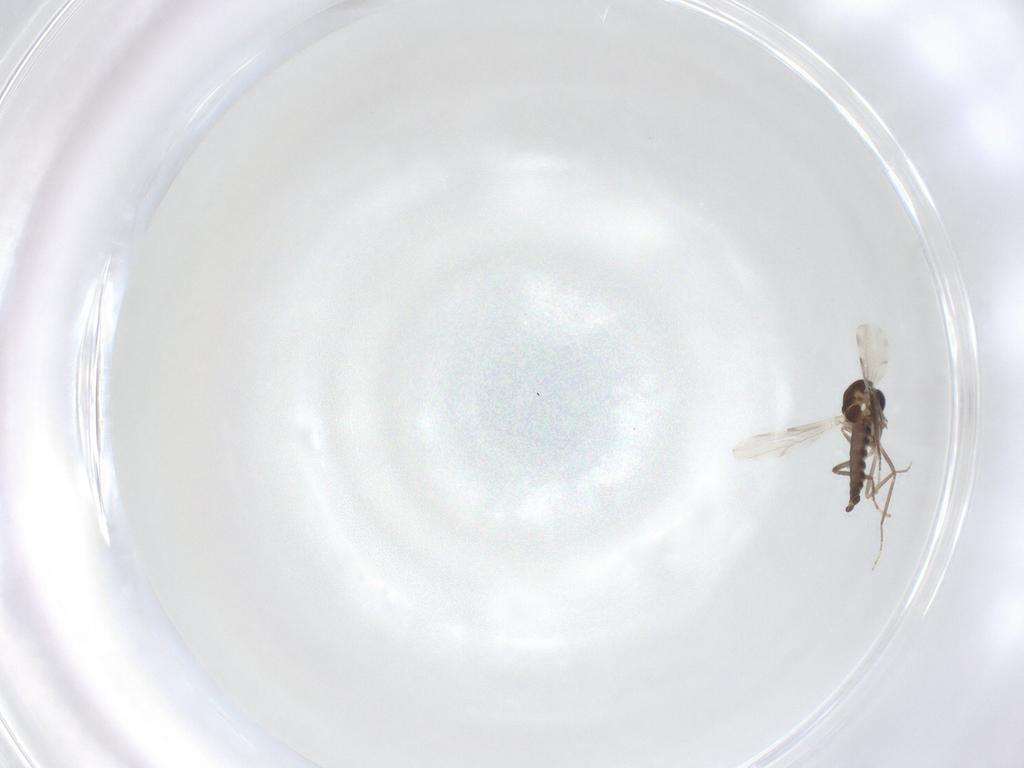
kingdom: Animalia
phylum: Arthropoda
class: Insecta
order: Diptera
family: Ceratopogonidae
